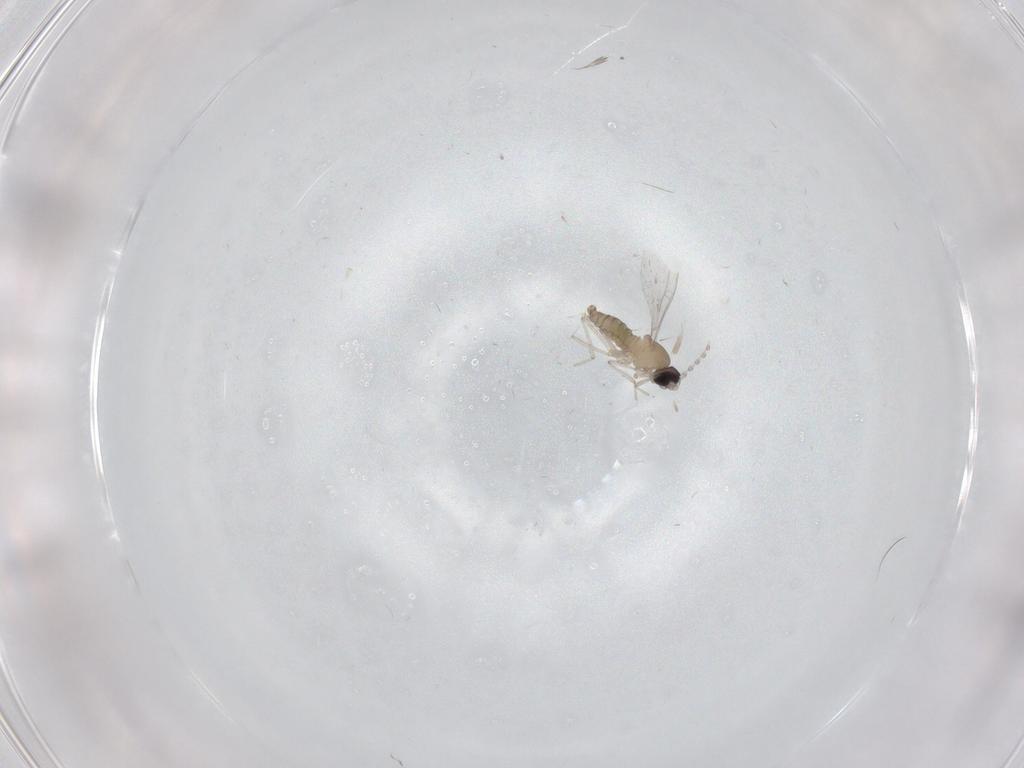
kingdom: Animalia
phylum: Arthropoda
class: Insecta
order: Diptera
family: Cecidomyiidae
